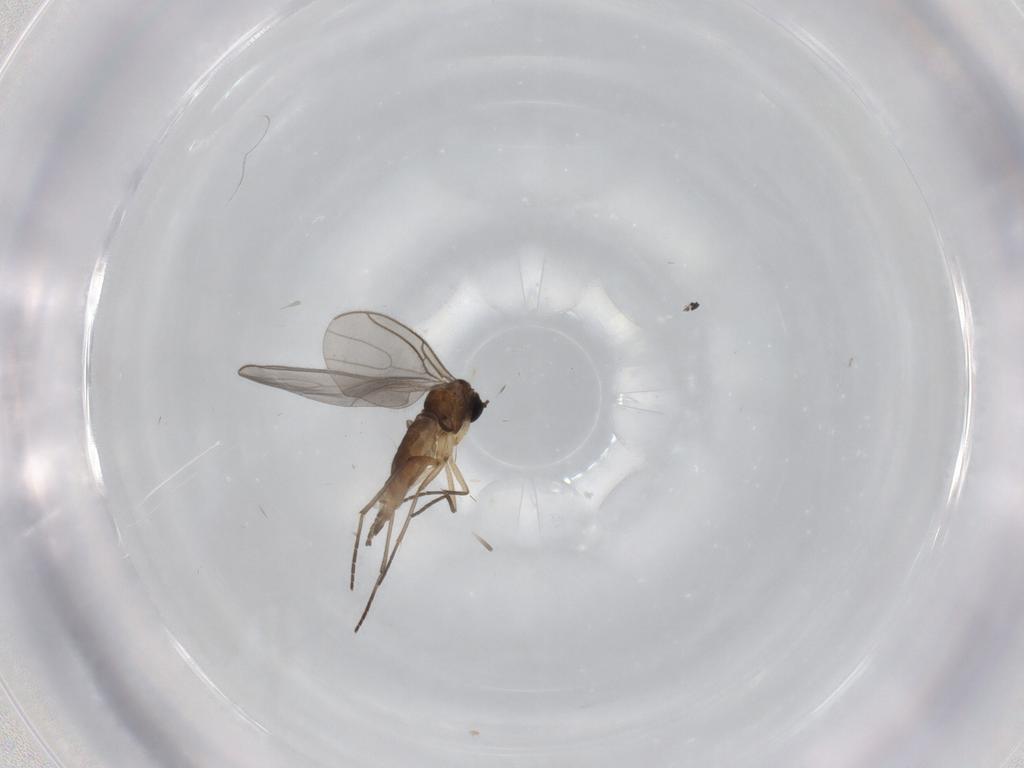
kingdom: Animalia
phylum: Arthropoda
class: Insecta
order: Diptera
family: Sciaridae
